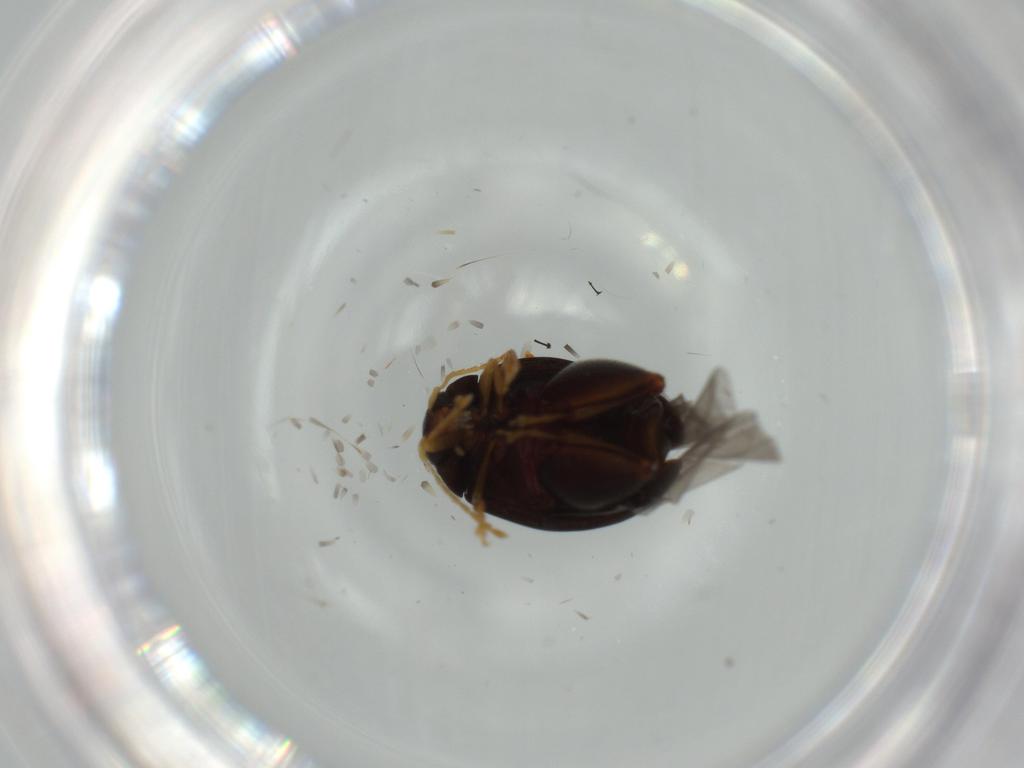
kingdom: Animalia
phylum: Arthropoda
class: Insecta
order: Coleoptera
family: Chrysomelidae
